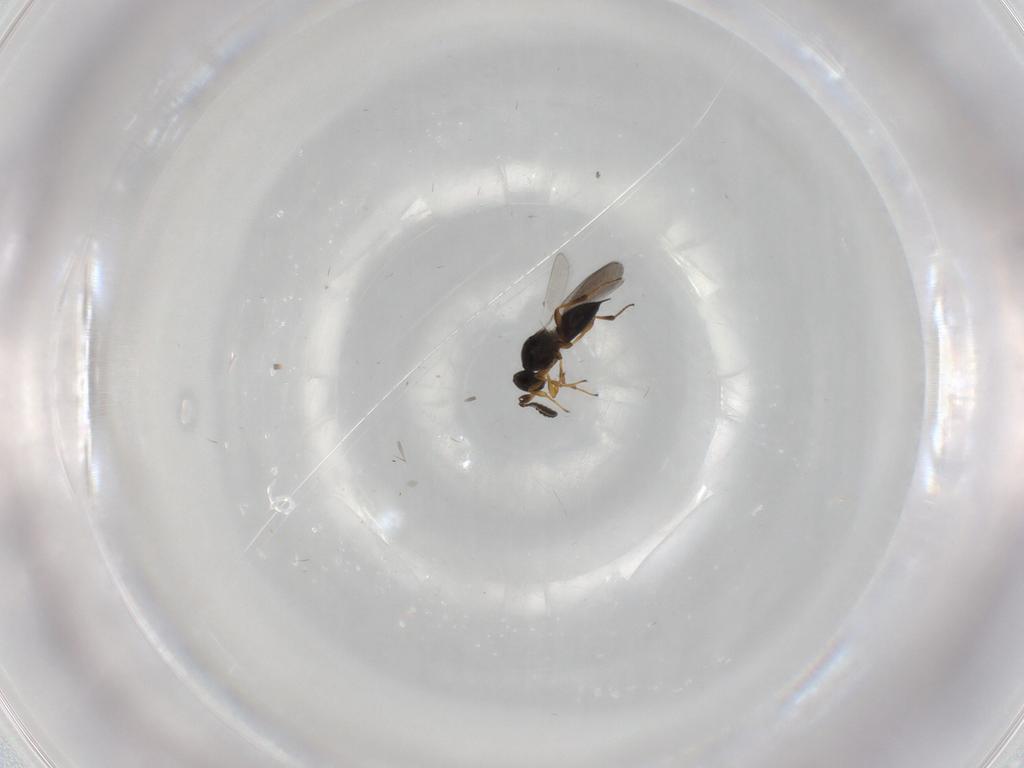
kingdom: Animalia
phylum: Arthropoda
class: Insecta
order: Hymenoptera
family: Platygastridae
